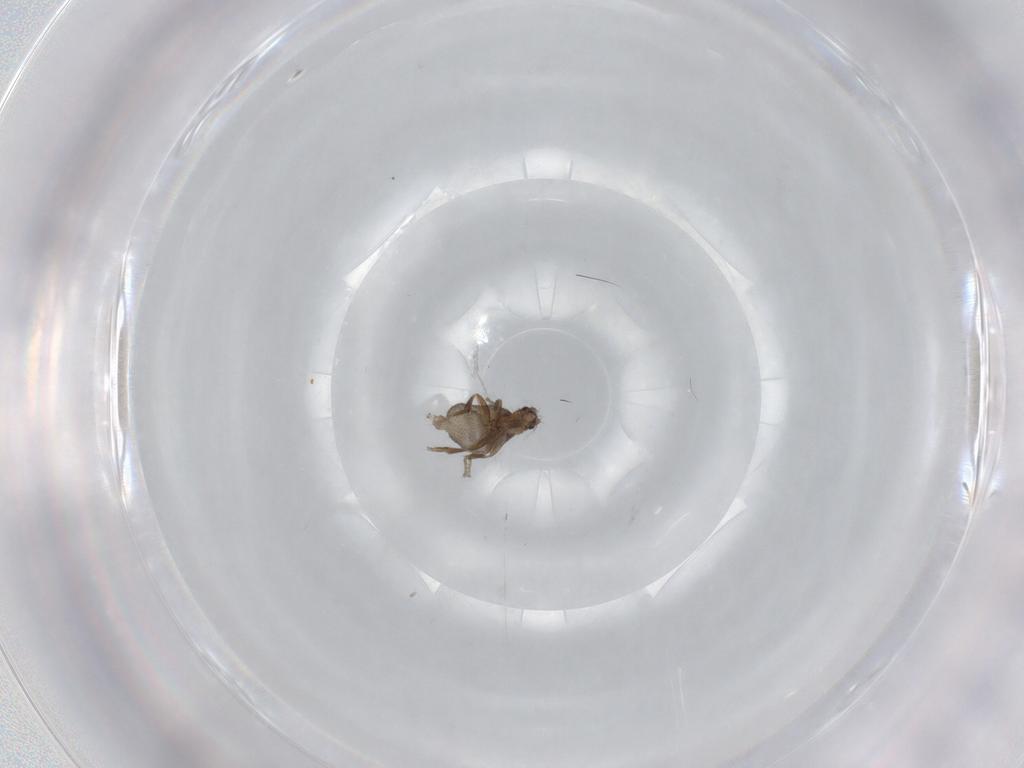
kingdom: Animalia
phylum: Arthropoda
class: Insecta
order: Diptera
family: Phoridae
